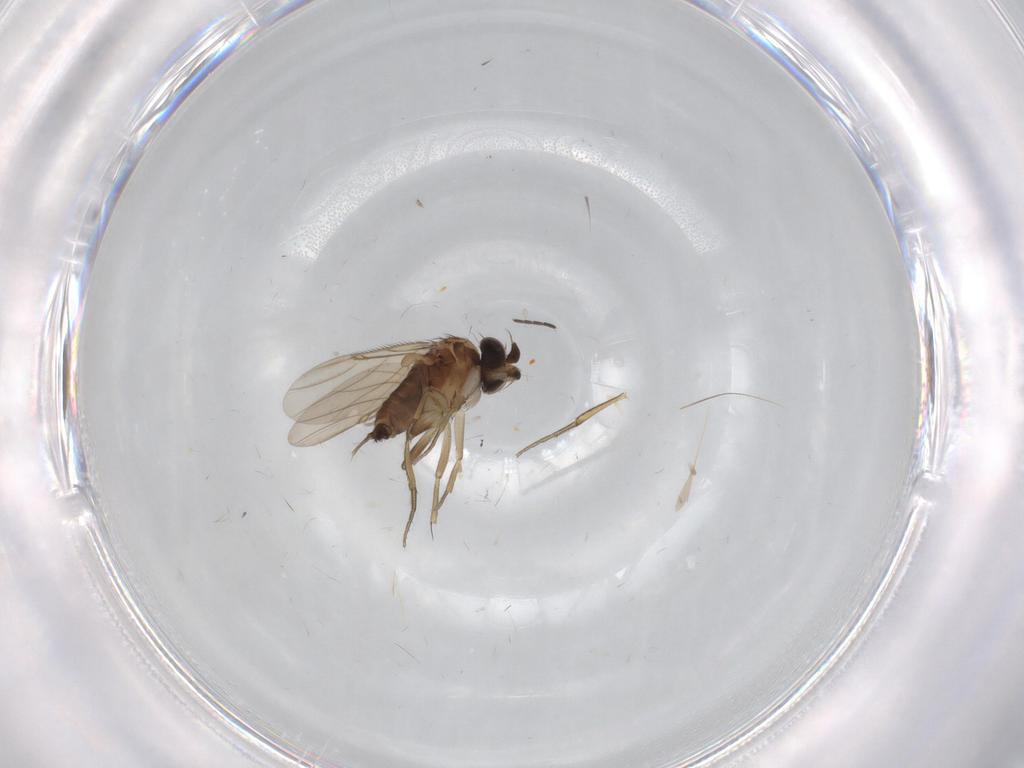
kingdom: Animalia
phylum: Arthropoda
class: Insecta
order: Diptera
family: Phoridae
